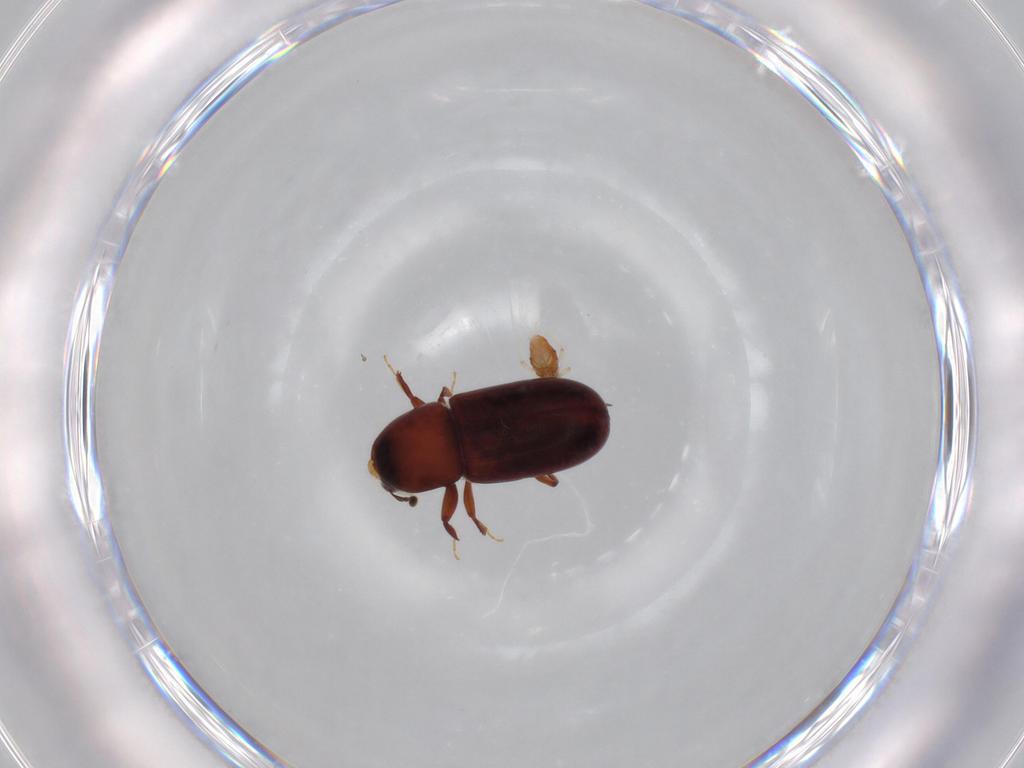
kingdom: Animalia
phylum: Arthropoda
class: Insecta
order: Coleoptera
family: Curculionidae
